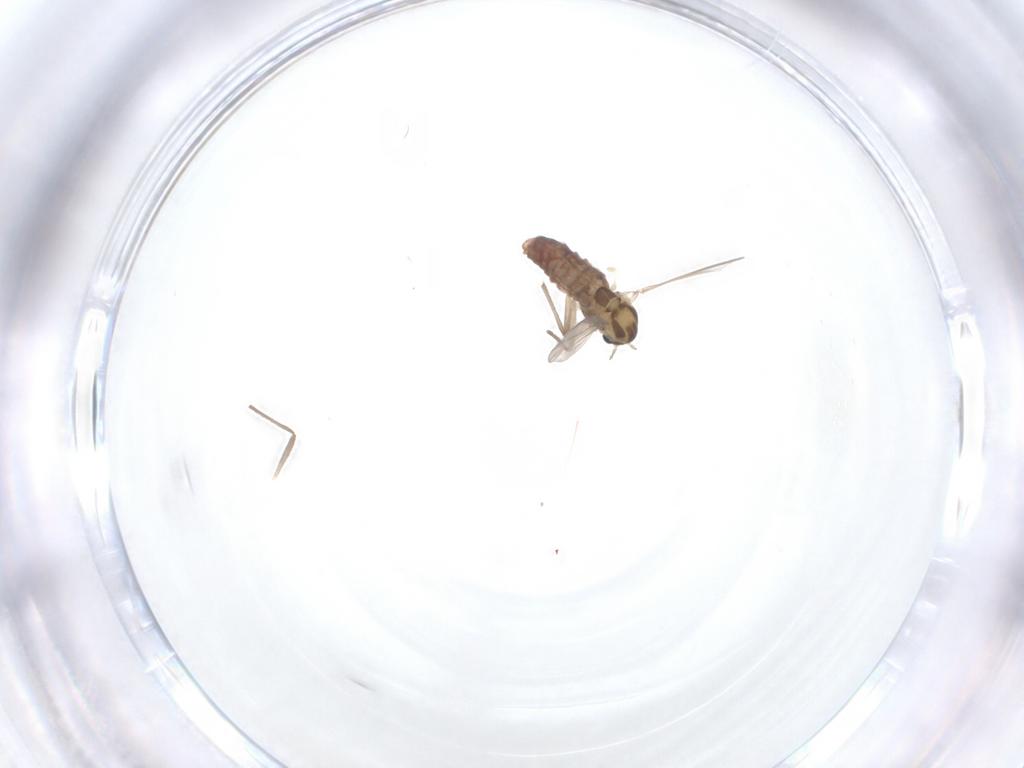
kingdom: Animalia
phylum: Arthropoda
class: Insecta
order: Diptera
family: Chironomidae
